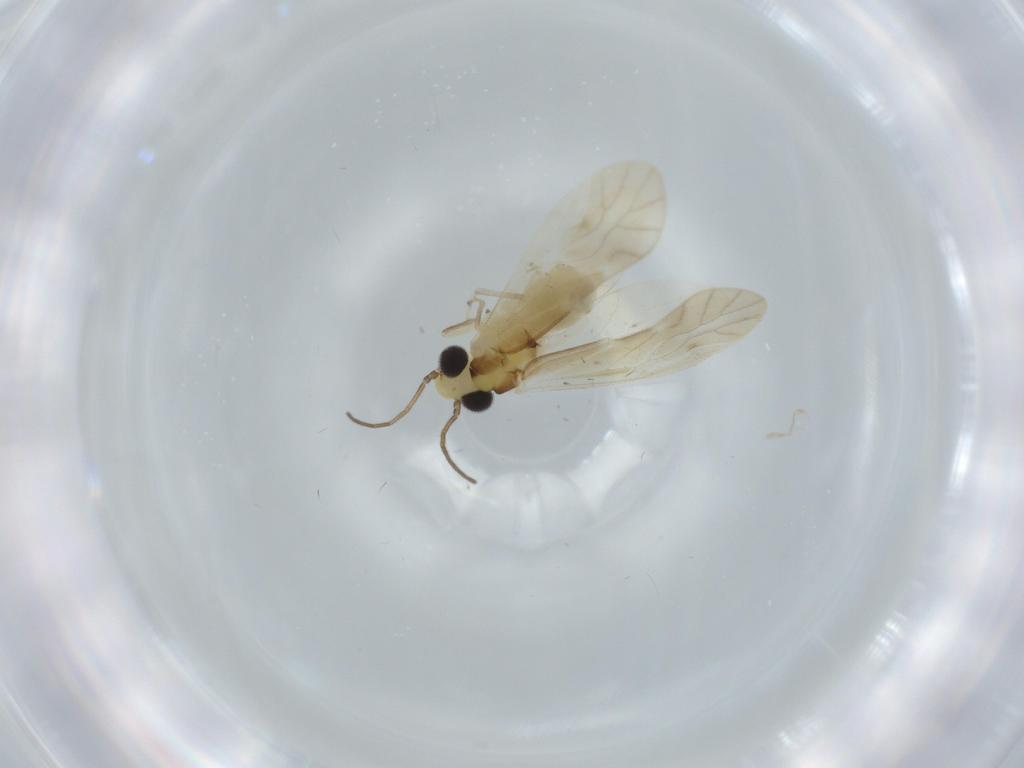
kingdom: Animalia
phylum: Arthropoda
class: Insecta
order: Psocodea
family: Caeciliusidae
